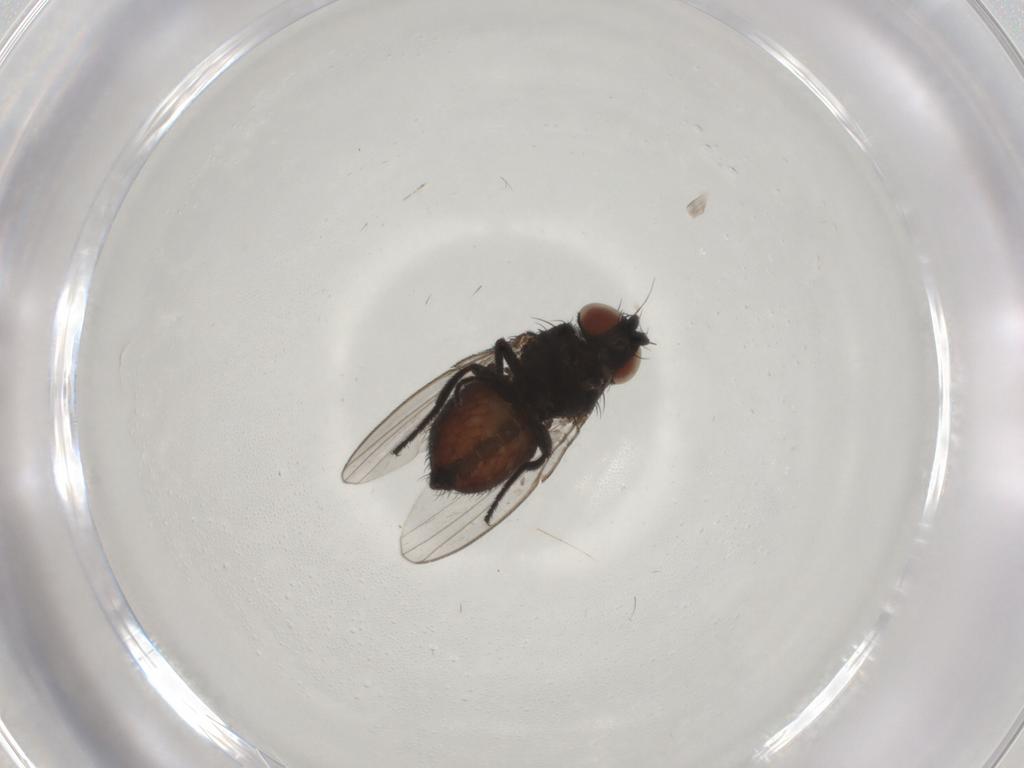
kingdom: Animalia
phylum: Arthropoda
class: Insecta
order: Diptera
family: Milichiidae
